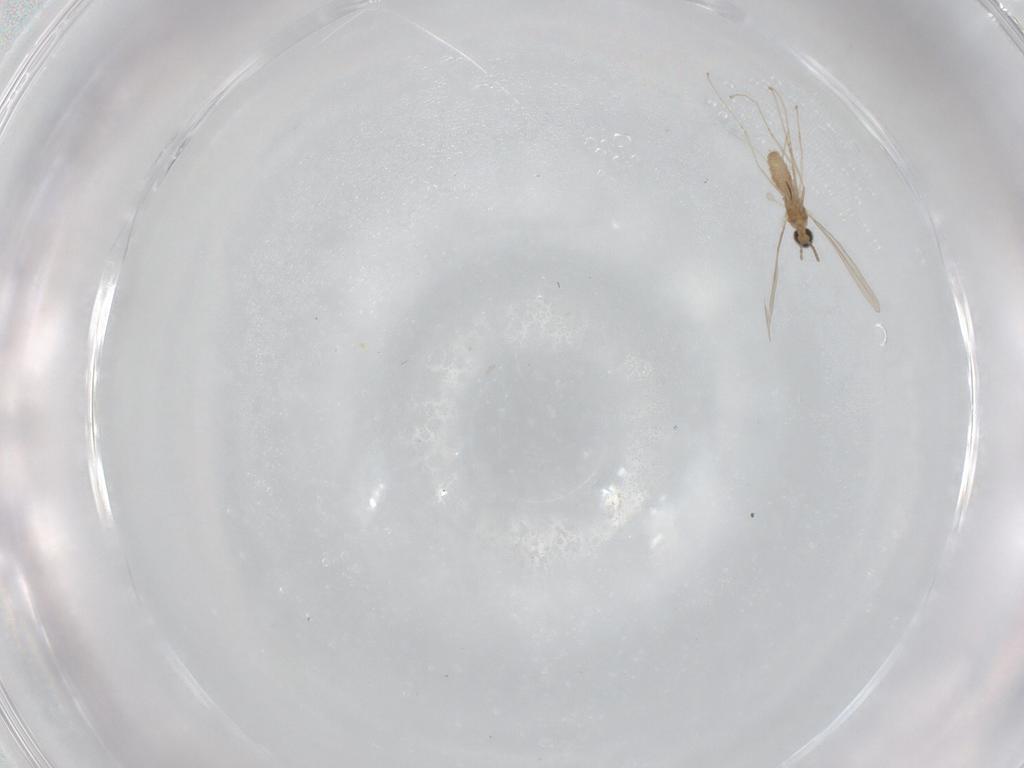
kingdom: Animalia
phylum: Arthropoda
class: Insecta
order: Diptera
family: Cecidomyiidae
